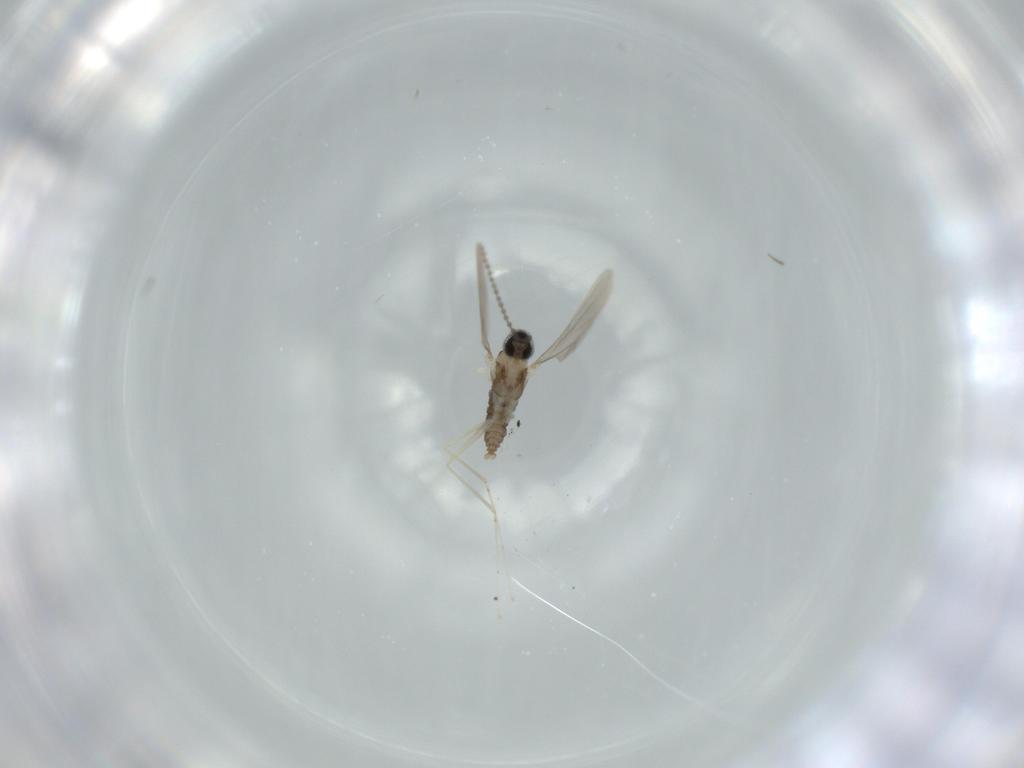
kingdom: Animalia
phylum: Arthropoda
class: Insecta
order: Diptera
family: Cecidomyiidae
